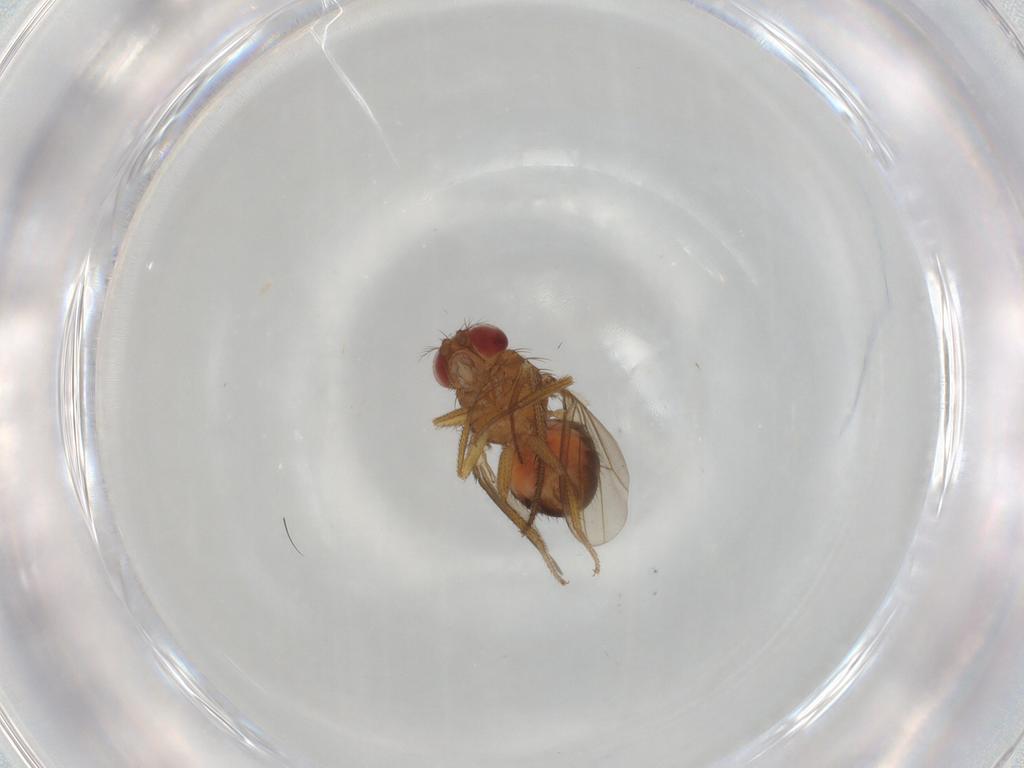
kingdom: Animalia
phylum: Arthropoda
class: Insecta
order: Diptera
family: Drosophilidae
